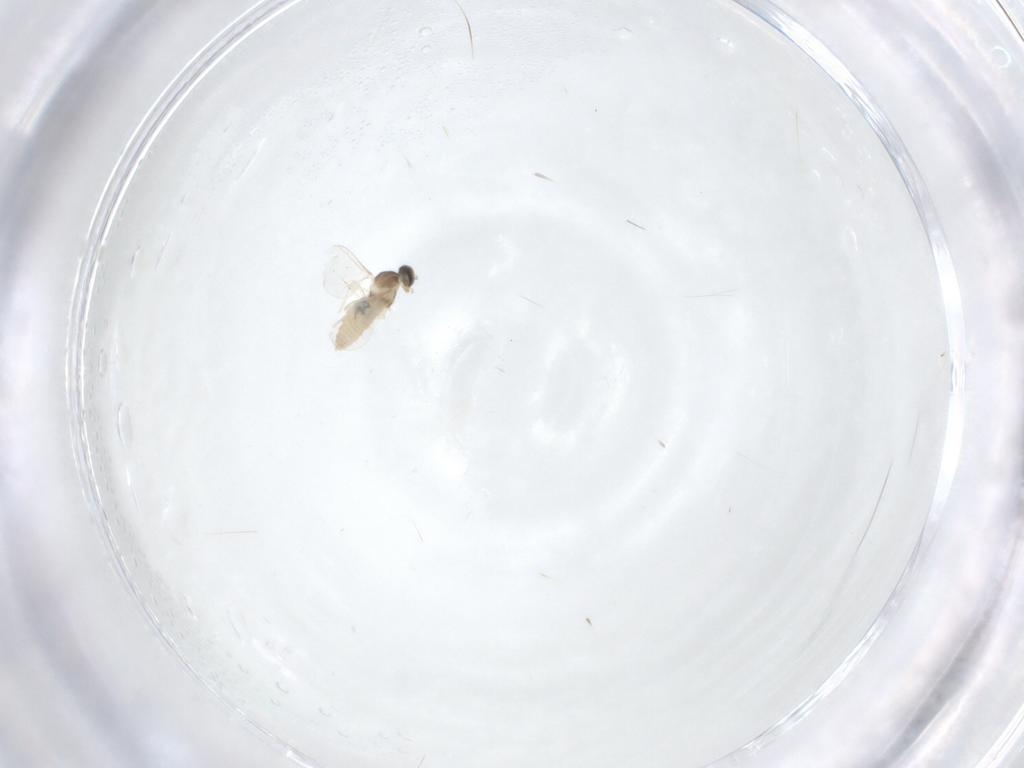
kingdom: Animalia
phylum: Arthropoda
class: Insecta
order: Diptera
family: Cecidomyiidae
